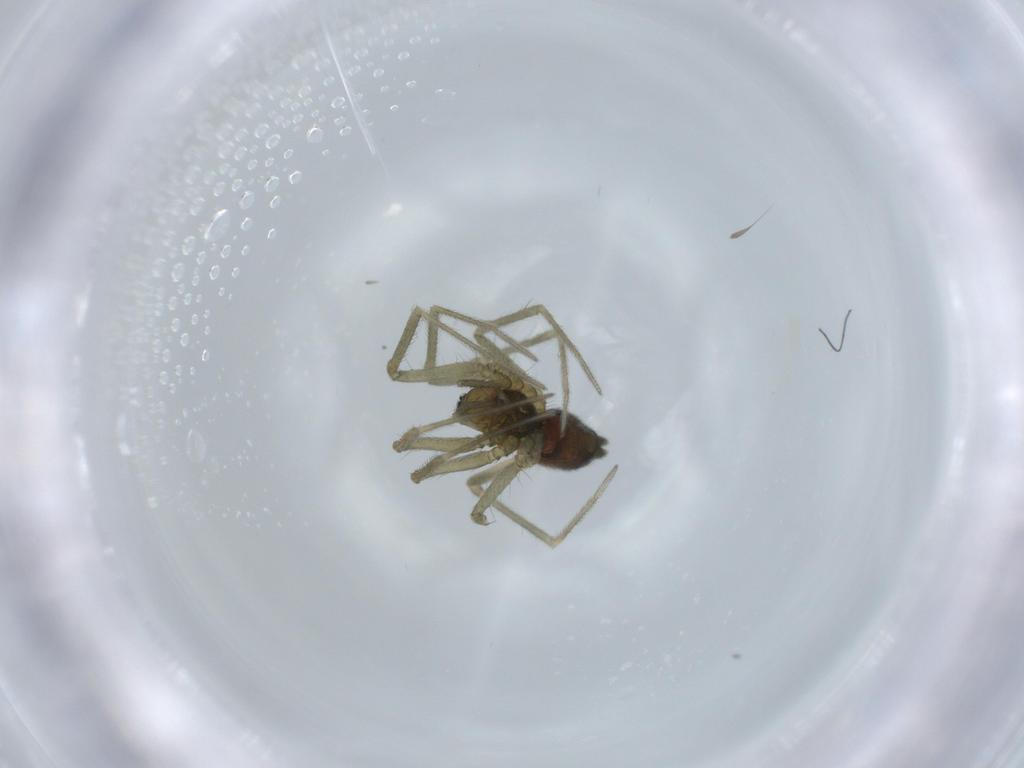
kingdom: Animalia
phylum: Arthropoda
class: Arachnida
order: Araneae
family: Linyphiidae
